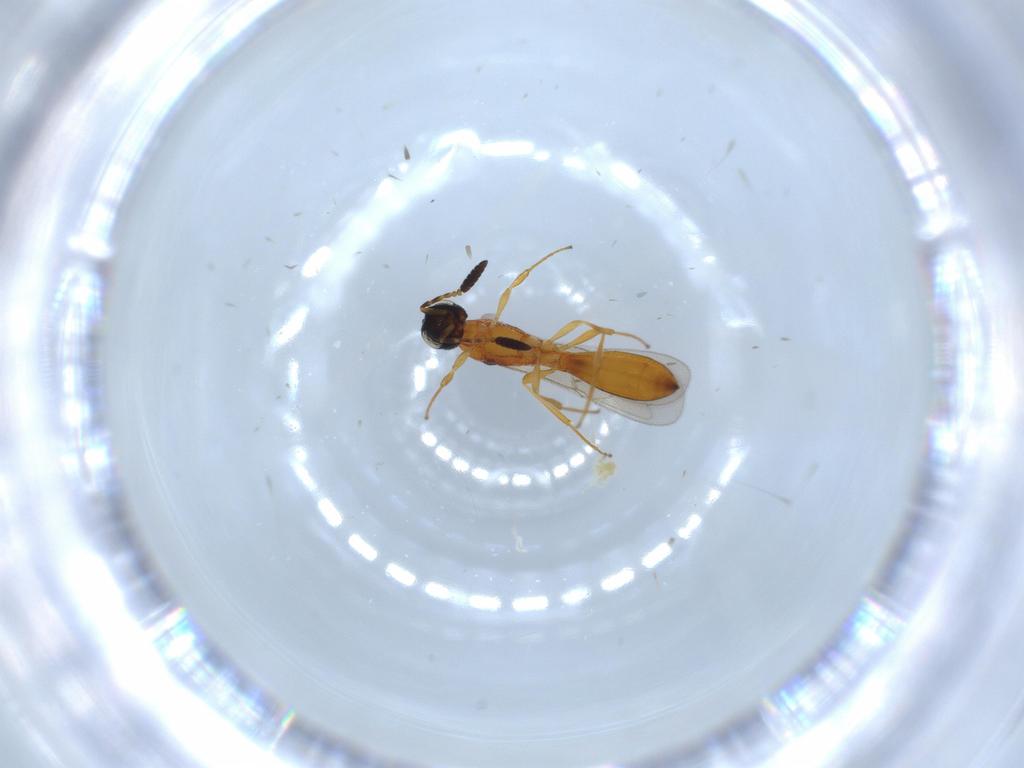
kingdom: Animalia
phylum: Arthropoda
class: Insecta
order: Hymenoptera
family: Scelionidae
